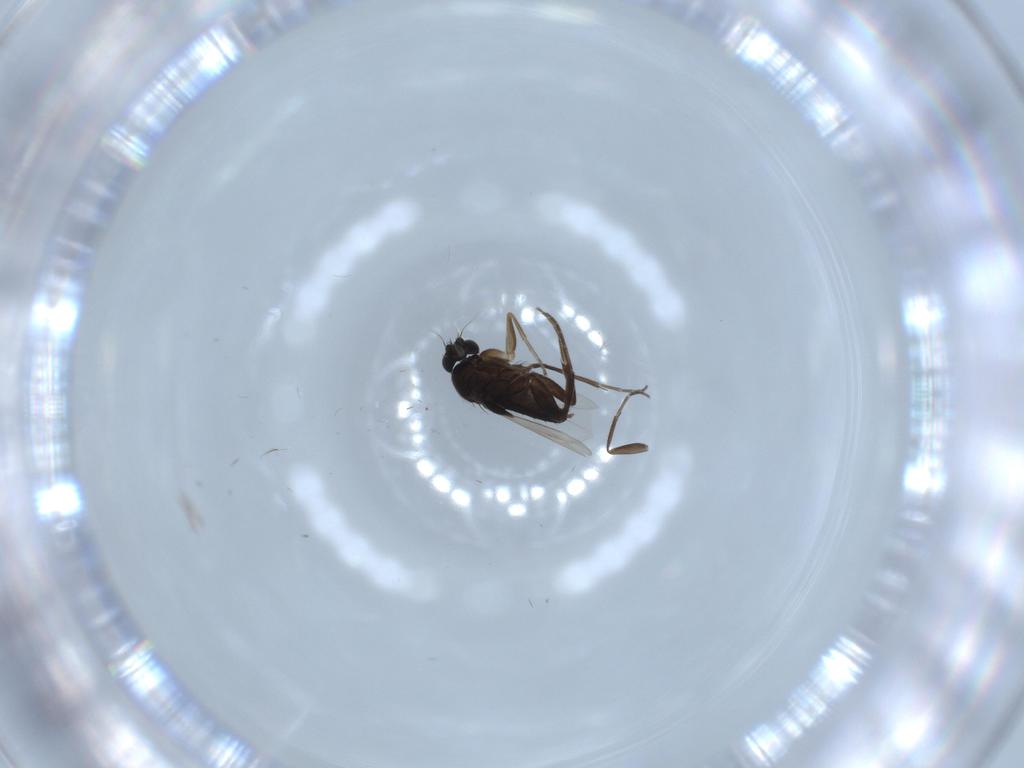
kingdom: Animalia
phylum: Arthropoda
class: Insecta
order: Diptera
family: Phoridae
